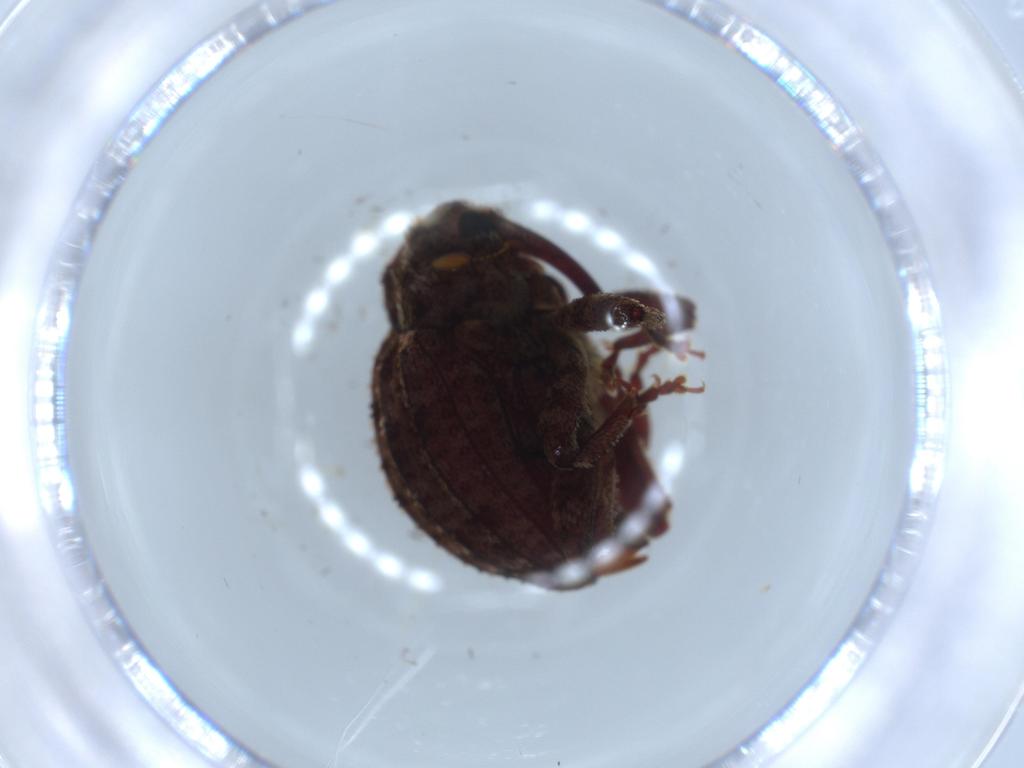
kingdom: Animalia
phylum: Arthropoda
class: Insecta
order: Coleoptera
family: Curculionidae
